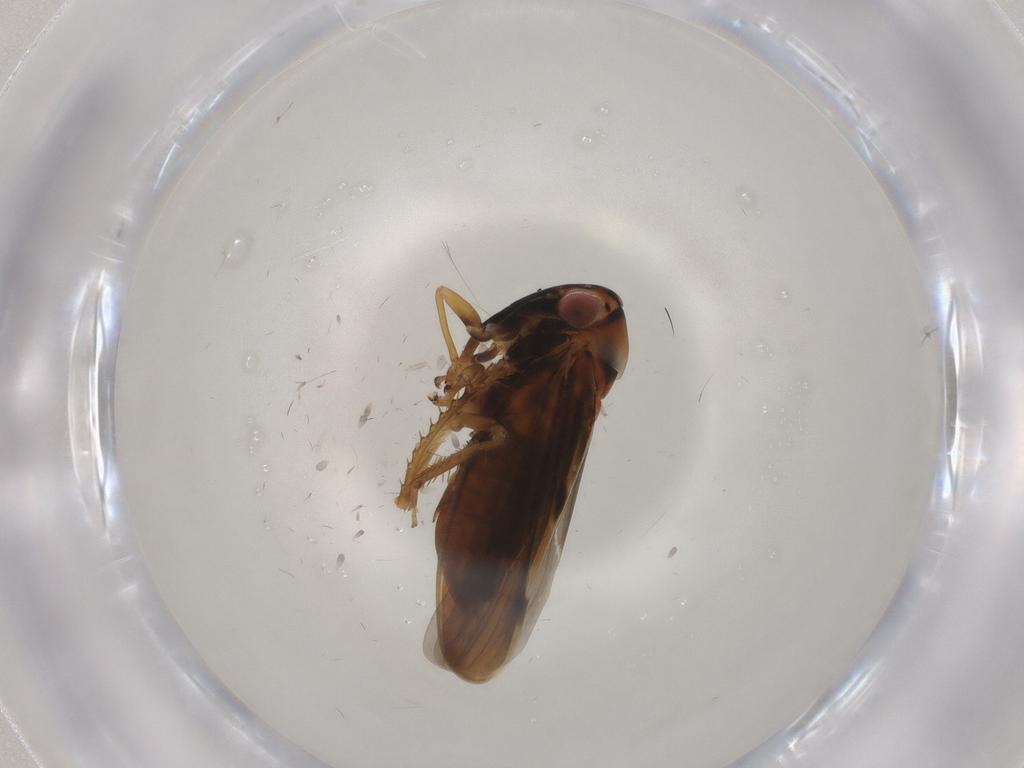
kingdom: Animalia
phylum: Arthropoda
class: Insecta
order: Hemiptera
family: Cicadellidae
